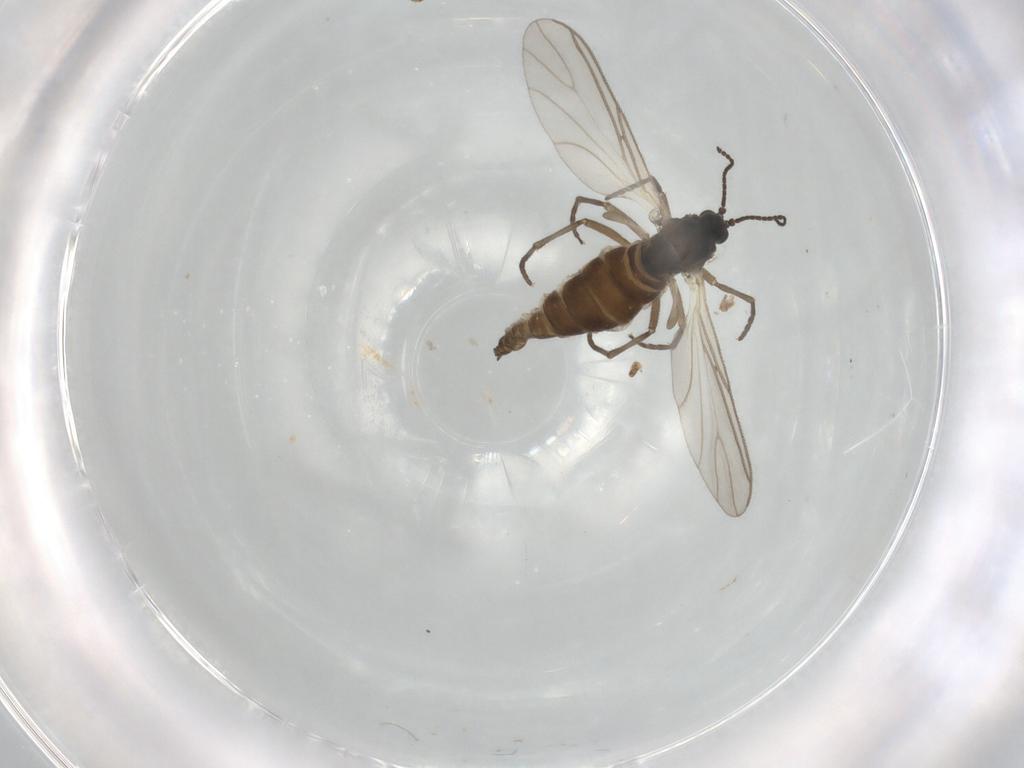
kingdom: Animalia
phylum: Arthropoda
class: Insecta
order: Diptera
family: Sciaridae
